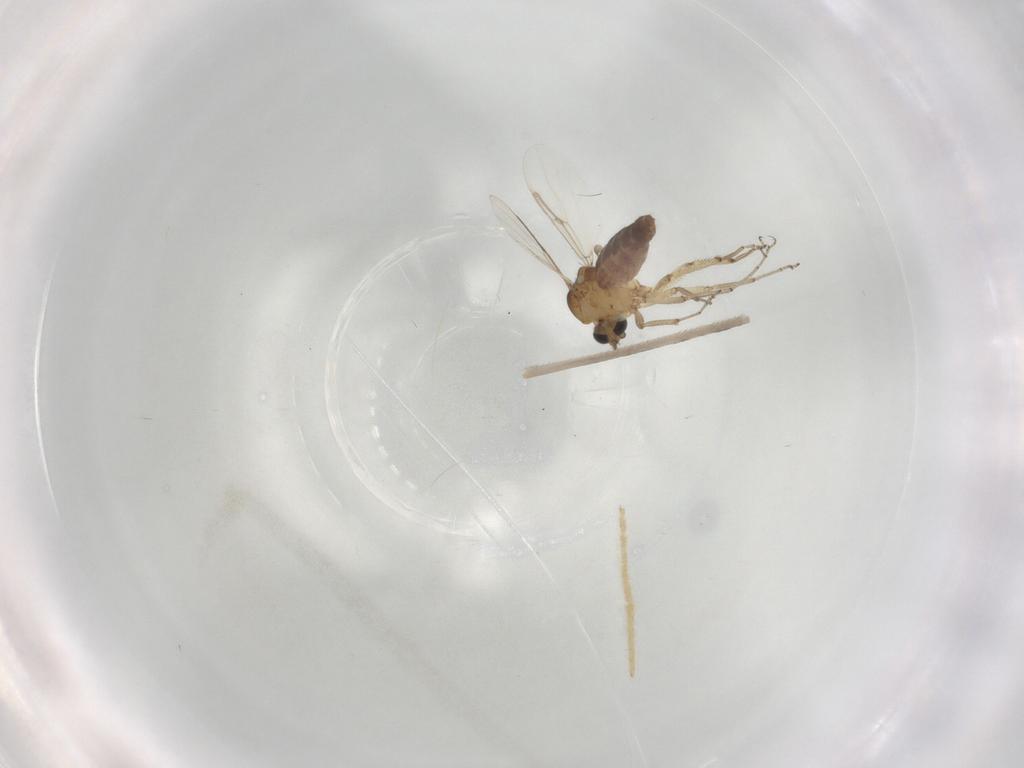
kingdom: Animalia
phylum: Arthropoda
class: Insecta
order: Diptera
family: Ceratopogonidae
